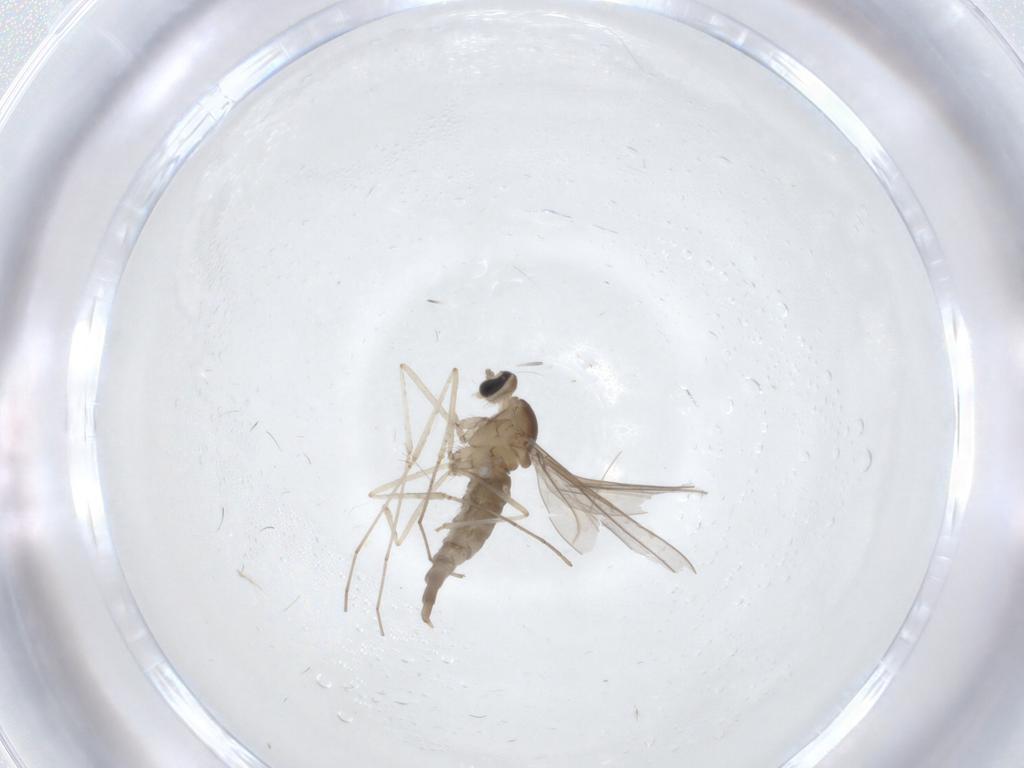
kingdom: Animalia
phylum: Arthropoda
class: Insecta
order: Diptera
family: Cecidomyiidae
